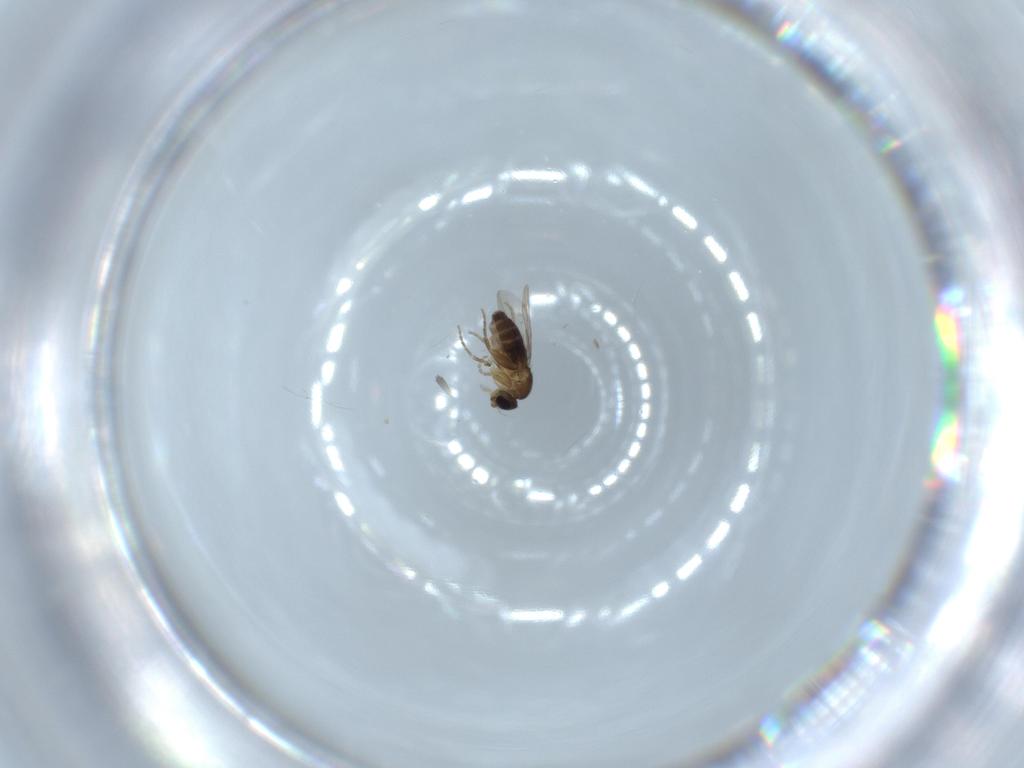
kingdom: Animalia
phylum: Arthropoda
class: Insecta
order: Diptera
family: Phoridae
